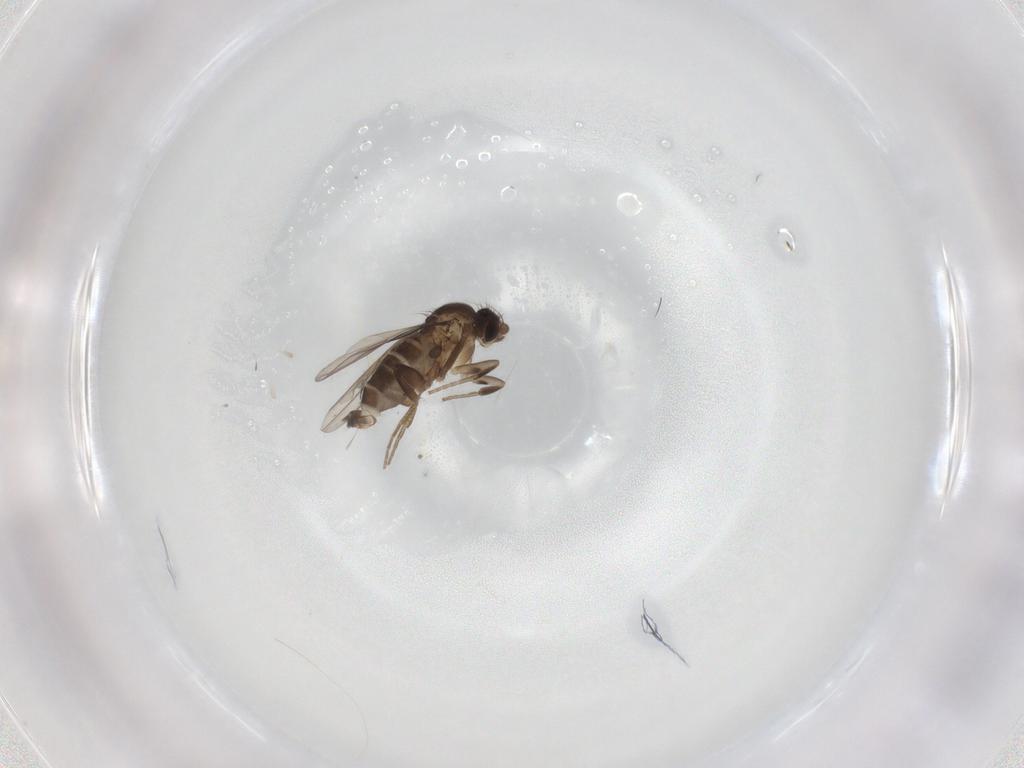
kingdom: Animalia
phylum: Arthropoda
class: Insecta
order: Diptera
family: Phoridae
